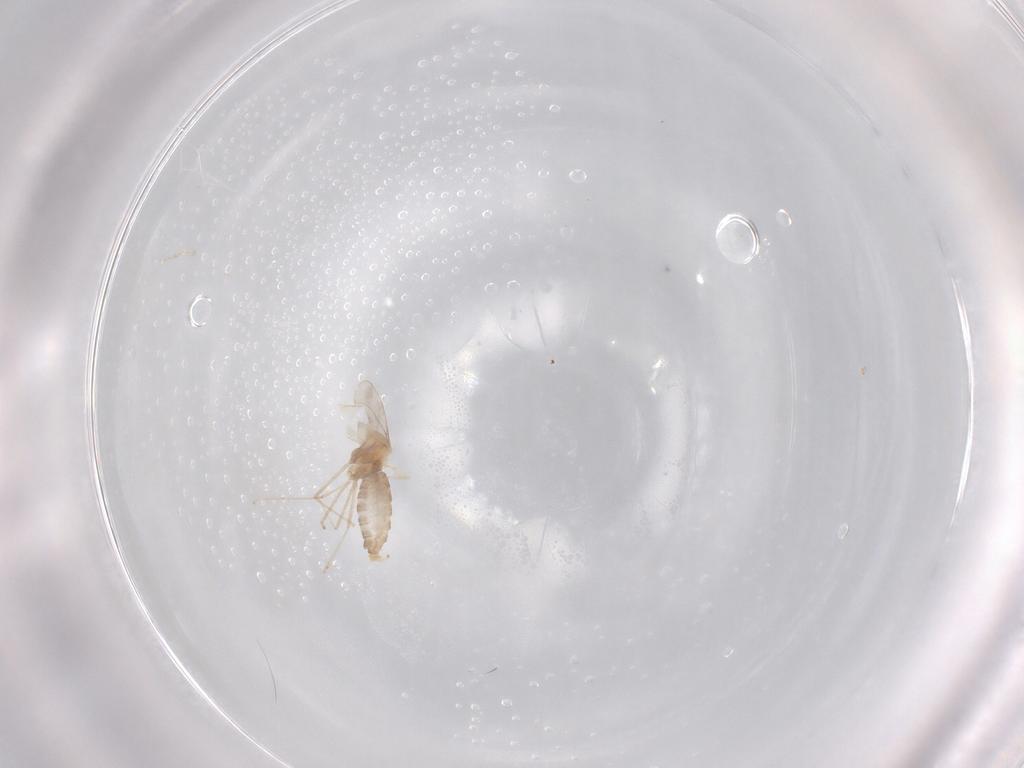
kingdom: Animalia
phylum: Arthropoda
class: Insecta
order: Diptera
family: Cecidomyiidae
